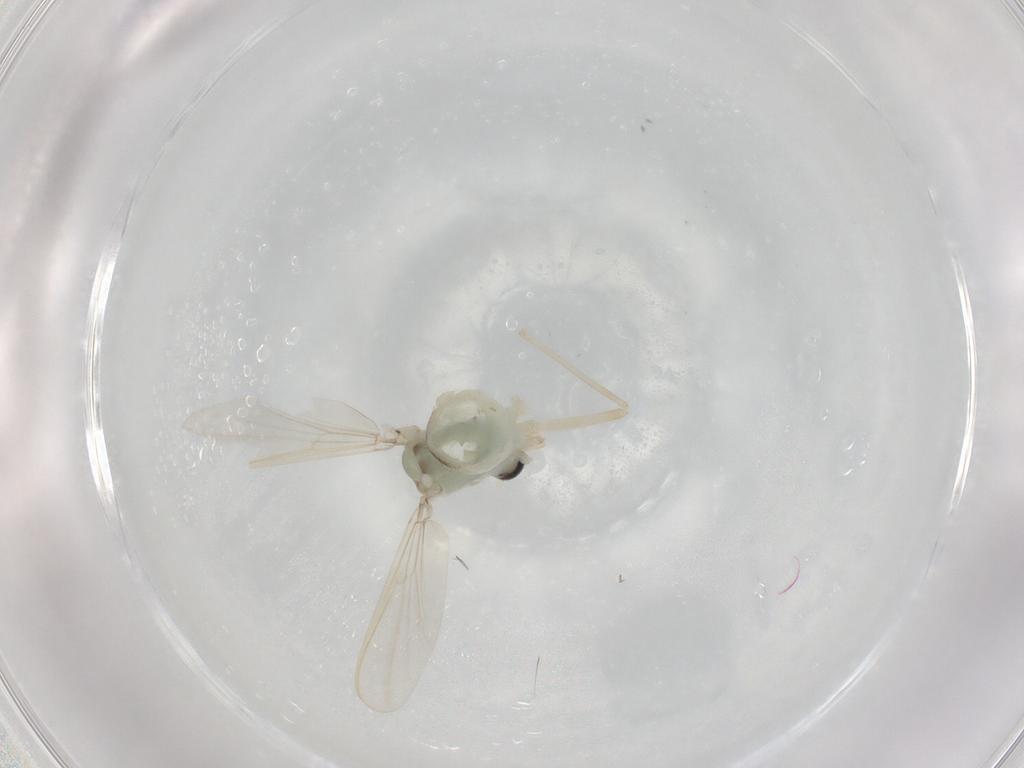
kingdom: Animalia
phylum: Arthropoda
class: Insecta
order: Diptera
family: Chironomidae
